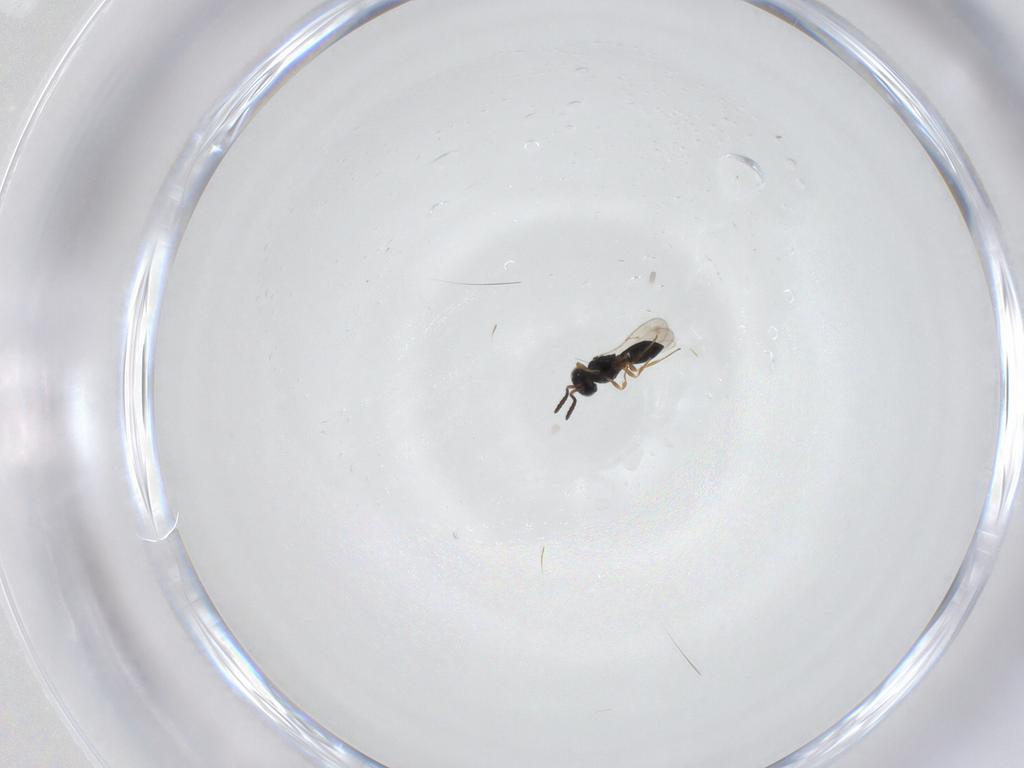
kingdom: Animalia
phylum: Arthropoda
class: Insecta
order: Hymenoptera
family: Scelionidae
